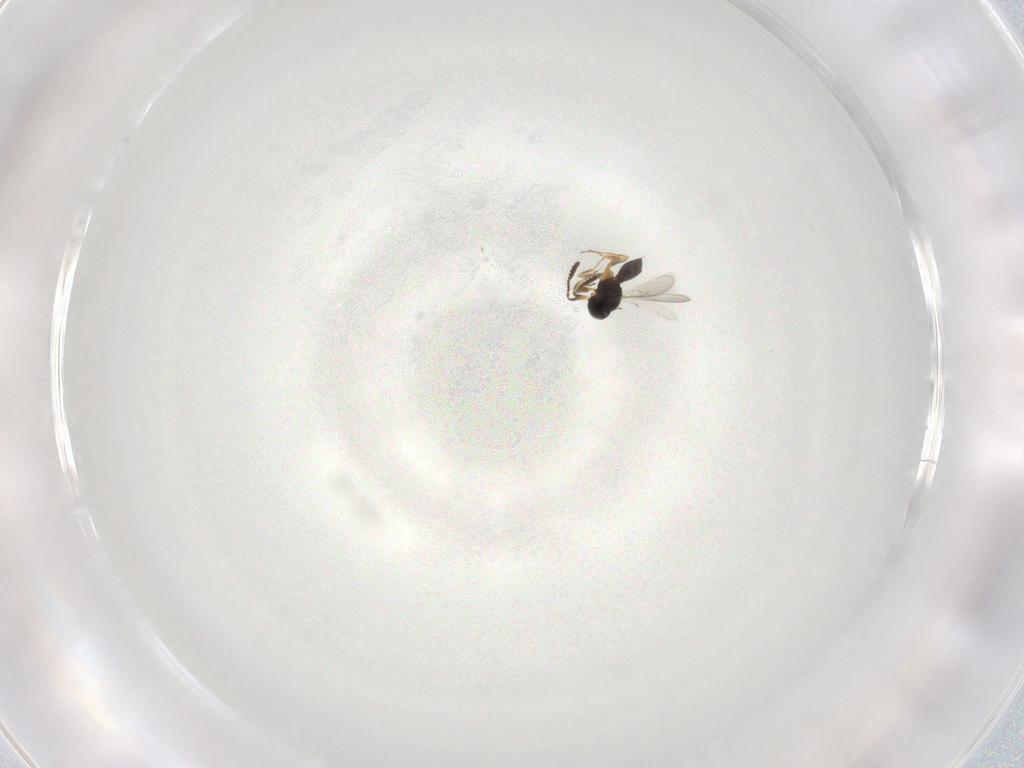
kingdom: Animalia
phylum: Arthropoda
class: Insecta
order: Hymenoptera
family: Scelionidae
